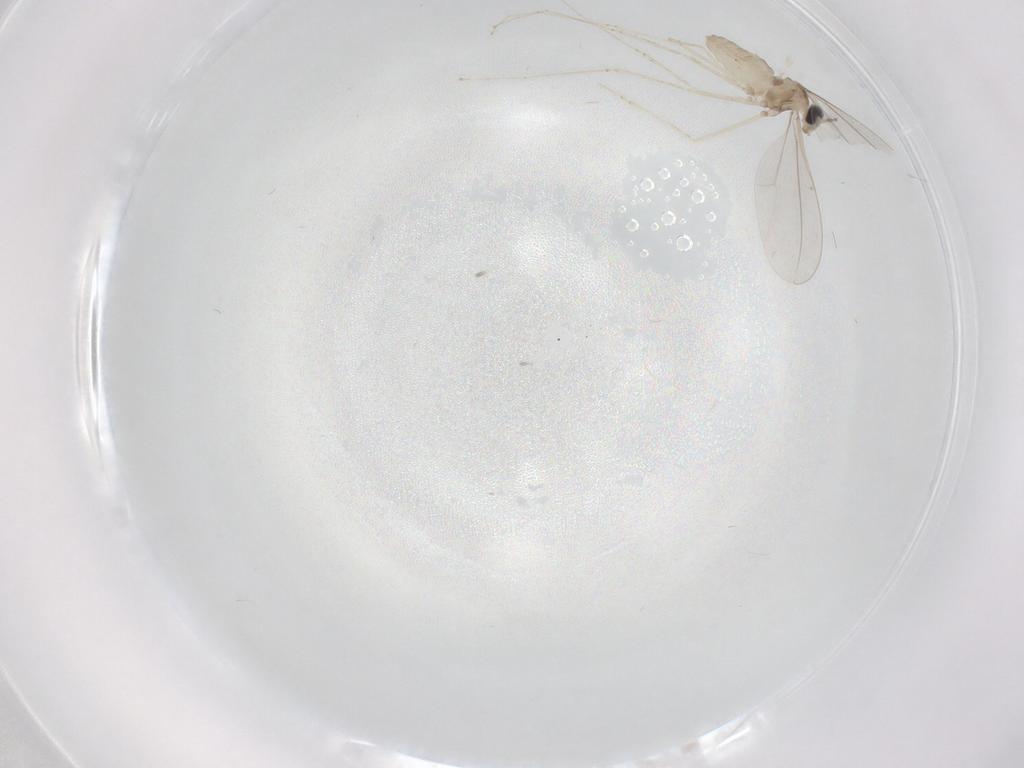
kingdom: Animalia
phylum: Arthropoda
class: Insecta
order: Diptera
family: Cecidomyiidae
